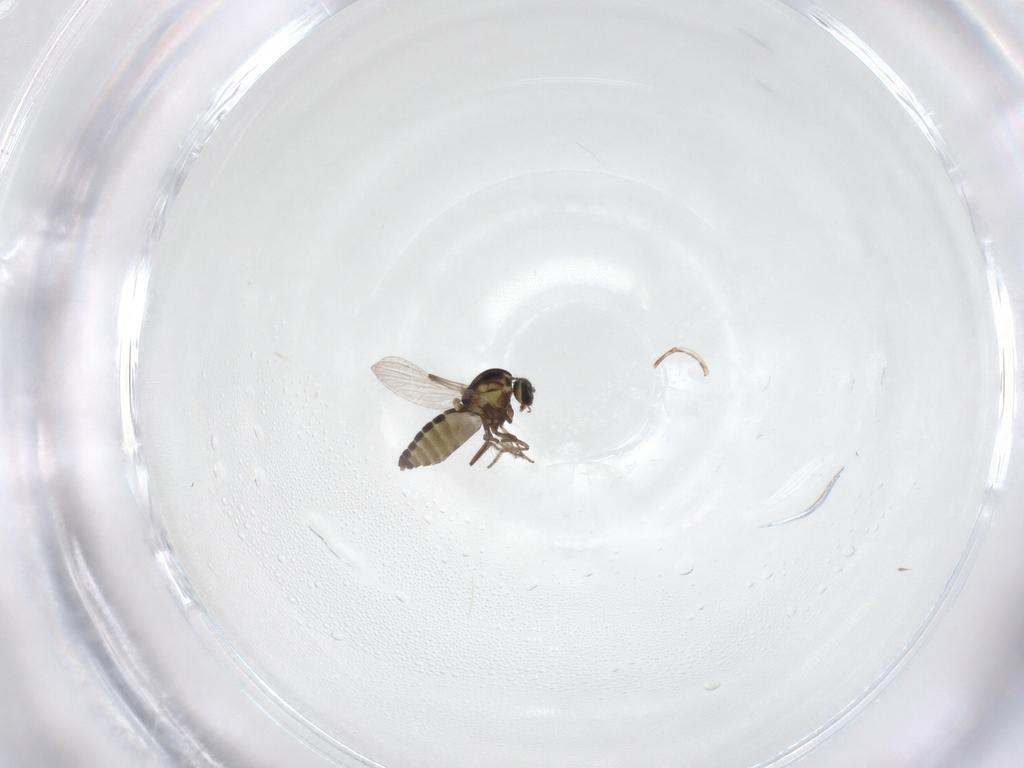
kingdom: Animalia
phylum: Arthropoda
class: Insecta
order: Diptera
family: Ceratopogonidae
